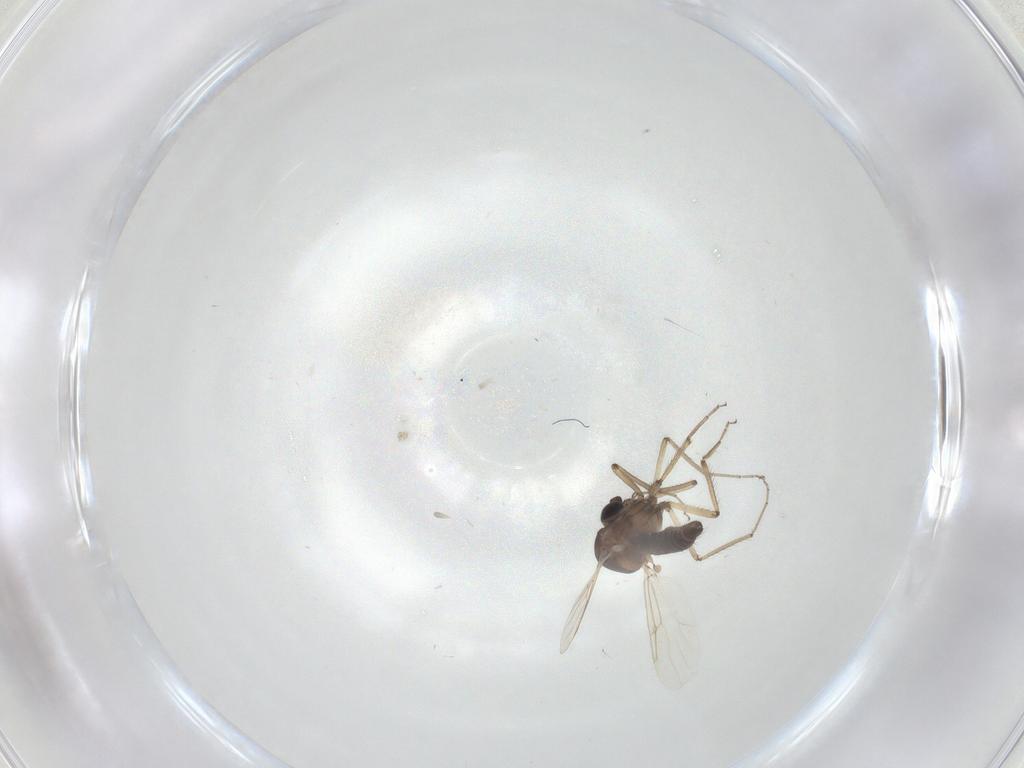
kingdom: Animalia
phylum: Arthropoda
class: Insecta
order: Diptera
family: Ceratopogonidae
